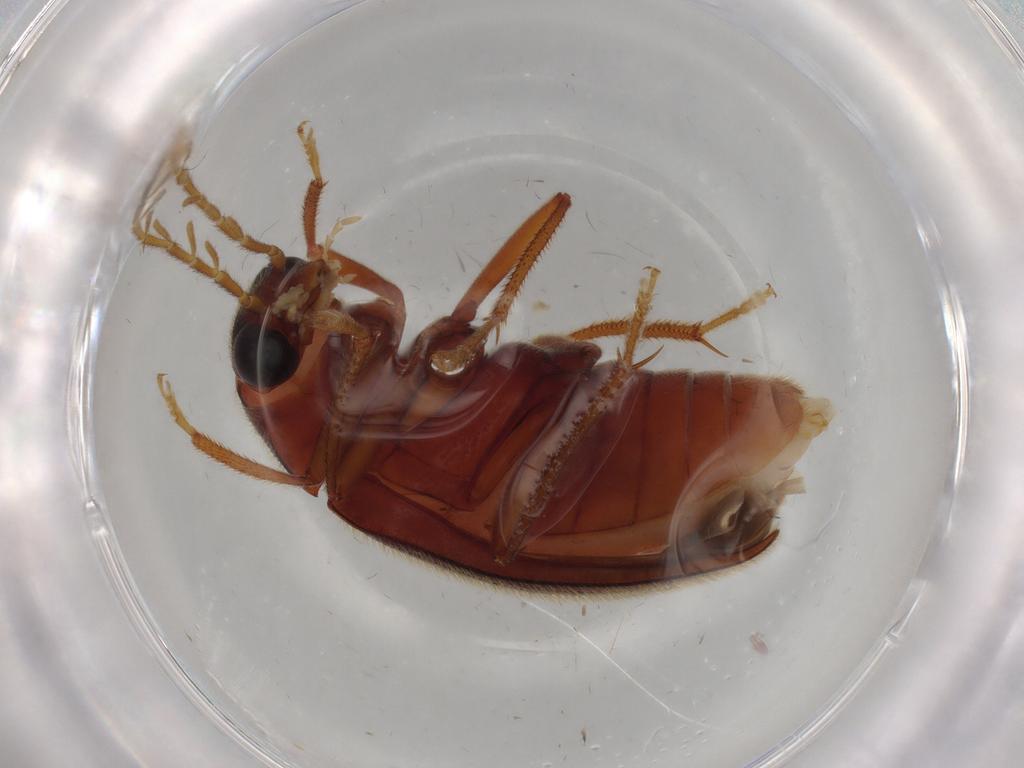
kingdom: Animalia
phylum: Arthropoda
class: Insecta
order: Coleoptera
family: Ptilodactylidae
